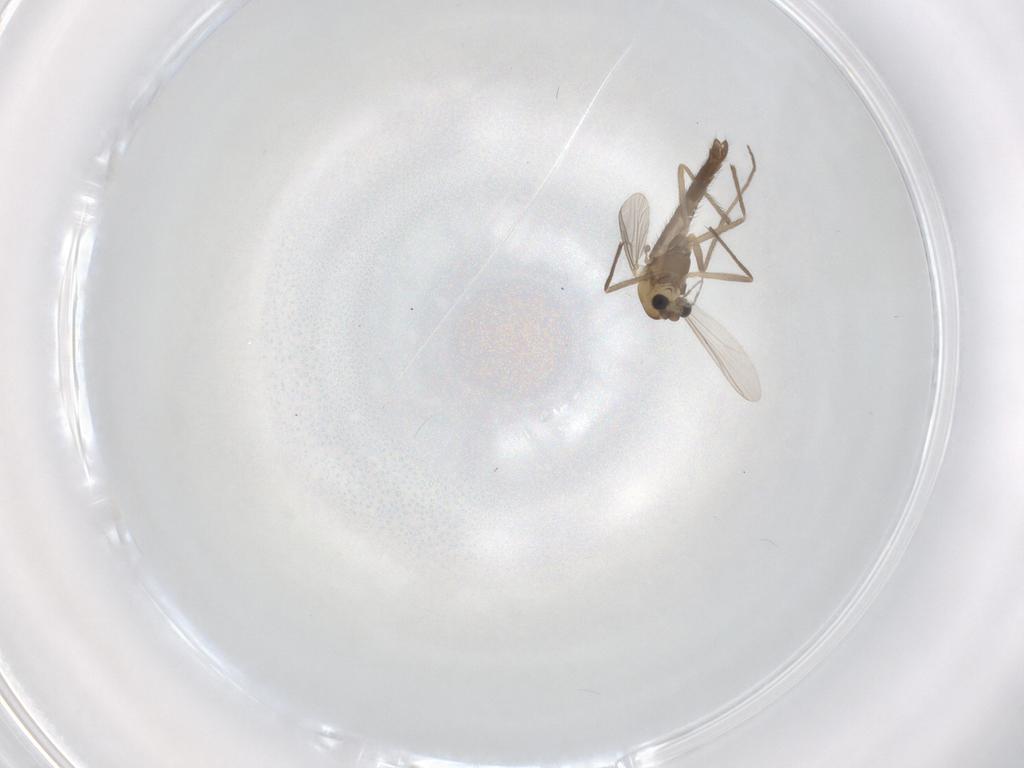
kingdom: Animalia
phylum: Arthropoda
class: Insecta
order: Diptera
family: Chironomidae
